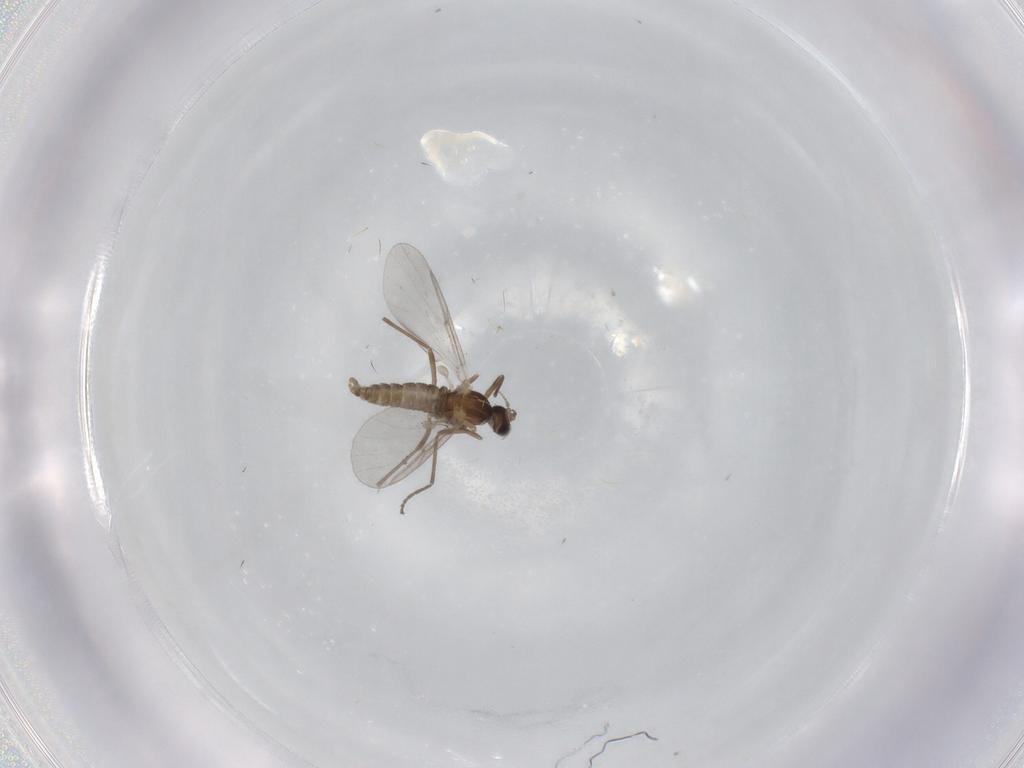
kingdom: Animalia
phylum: Arthropoda
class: Insecta
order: Diptera
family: Cecidomyiidae
